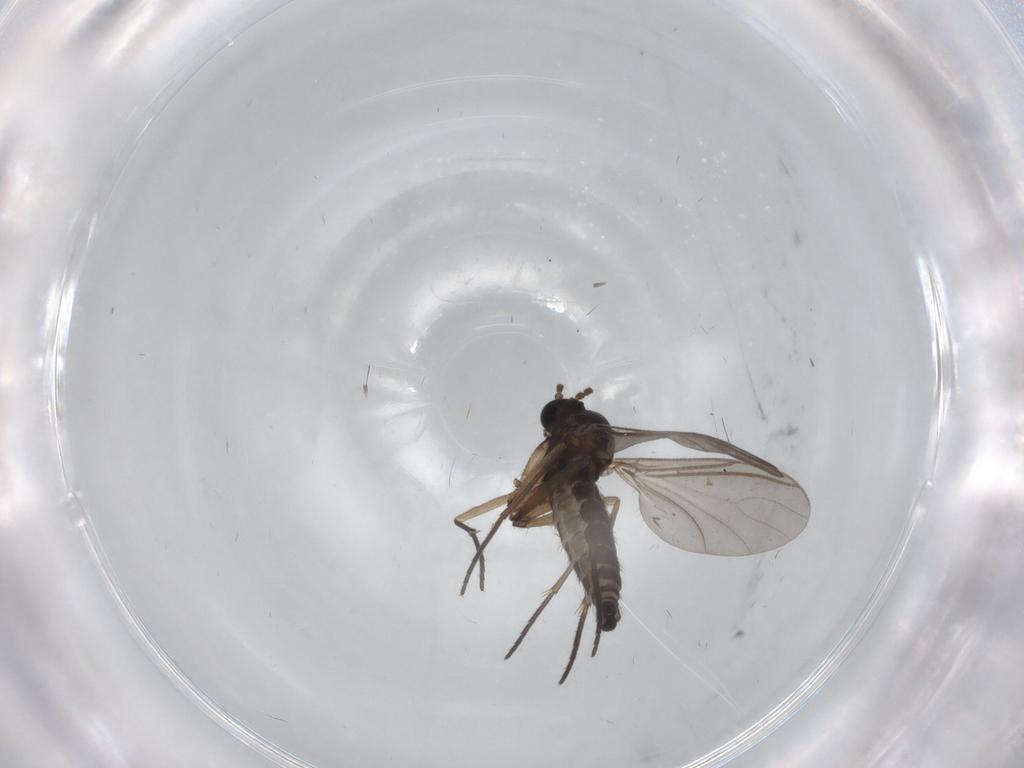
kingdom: Animalia
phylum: Arthropoda
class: Insecta
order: Diptera
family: Sciaridae
